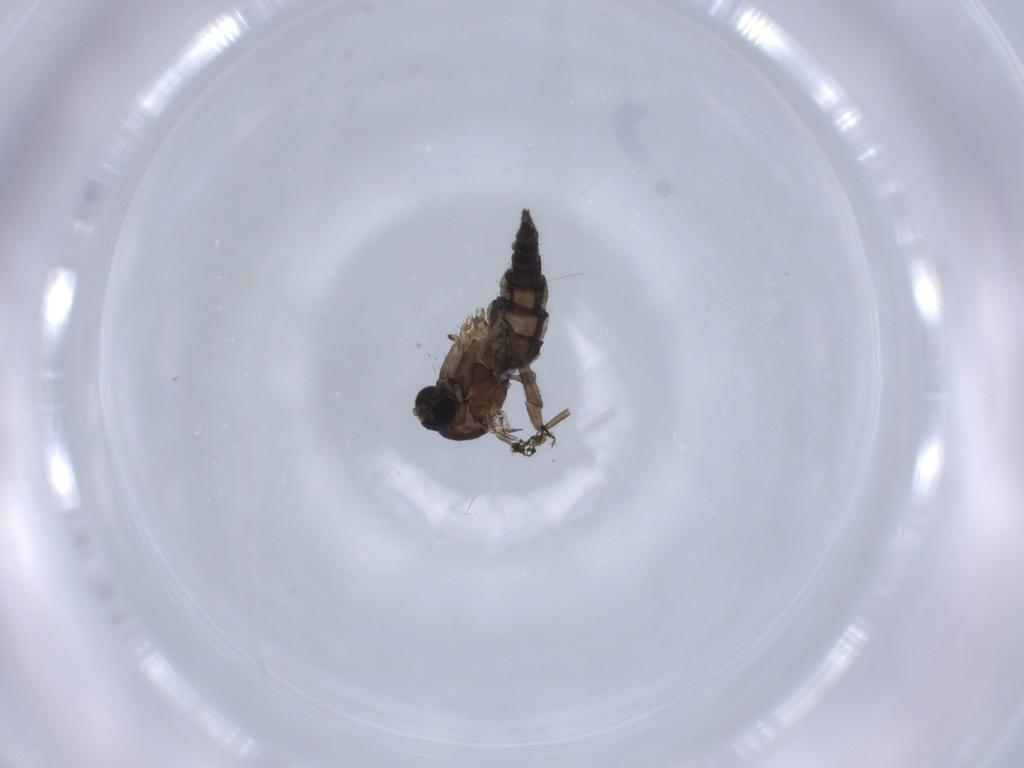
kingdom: Animalia
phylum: Arthropoda
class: Insecta
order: Diptera
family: Sciaridae
